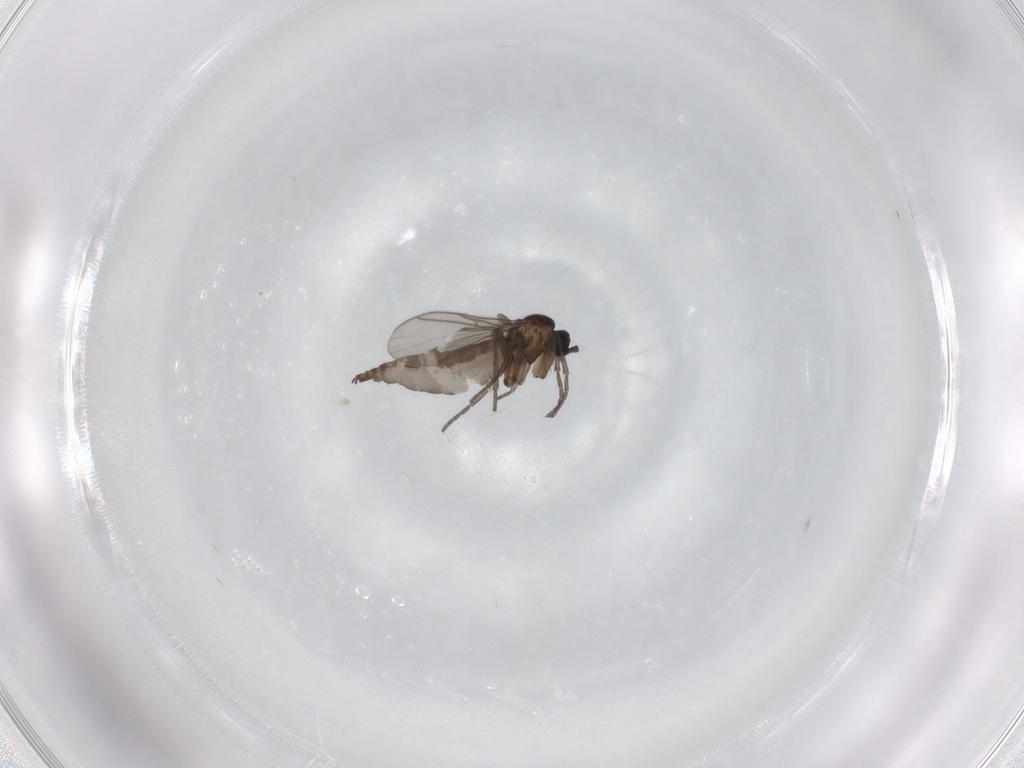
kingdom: Animalia
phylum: Arthropoda
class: Insecta
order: Diptera
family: Sciaridae
